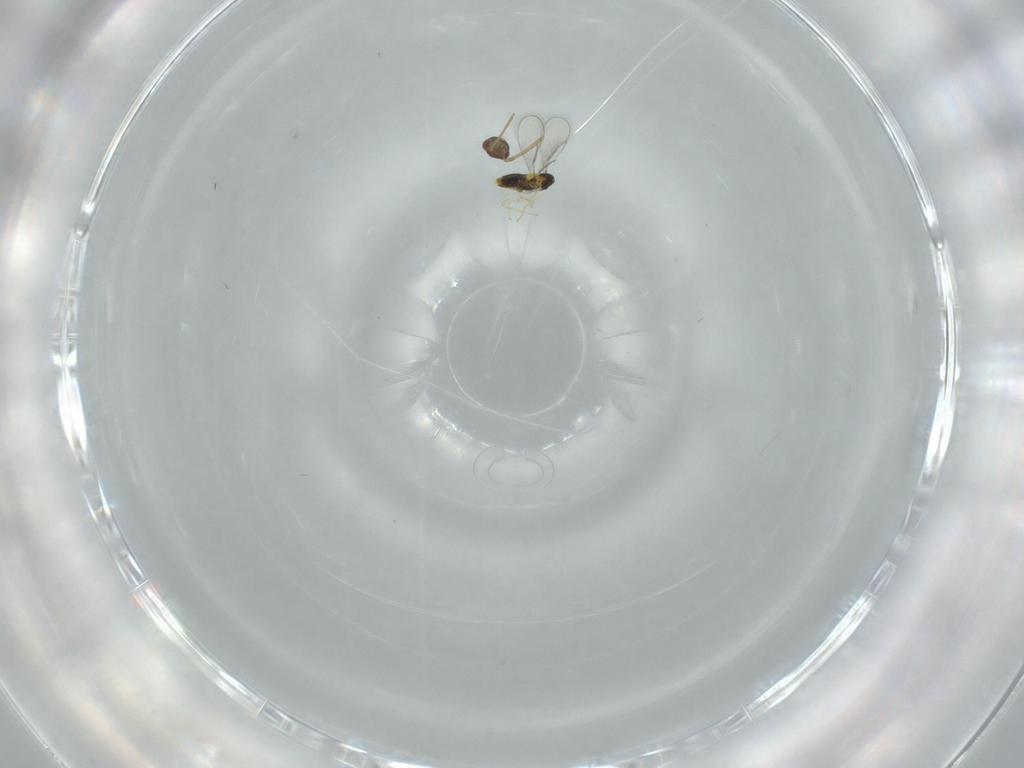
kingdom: Animalia
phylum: Arthropoda
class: Insecta
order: Hymenoptera
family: Aphelinidae
